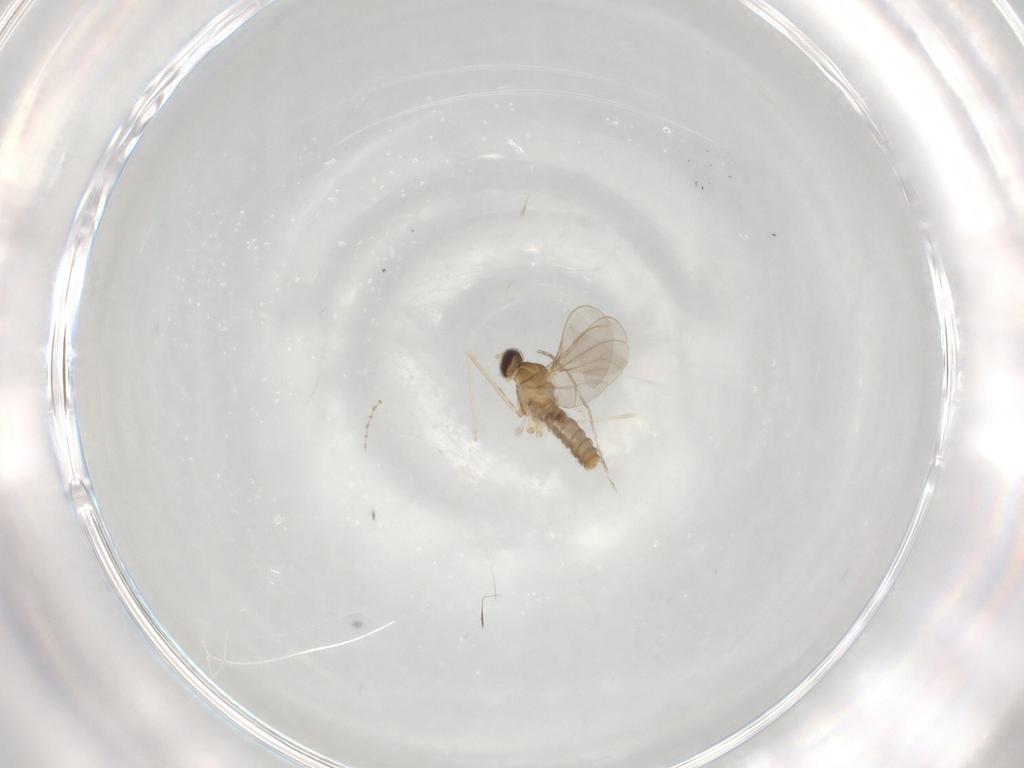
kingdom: Animalia
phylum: Arthropoda
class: Insecta
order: Diptera
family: Cecidomyiidae
